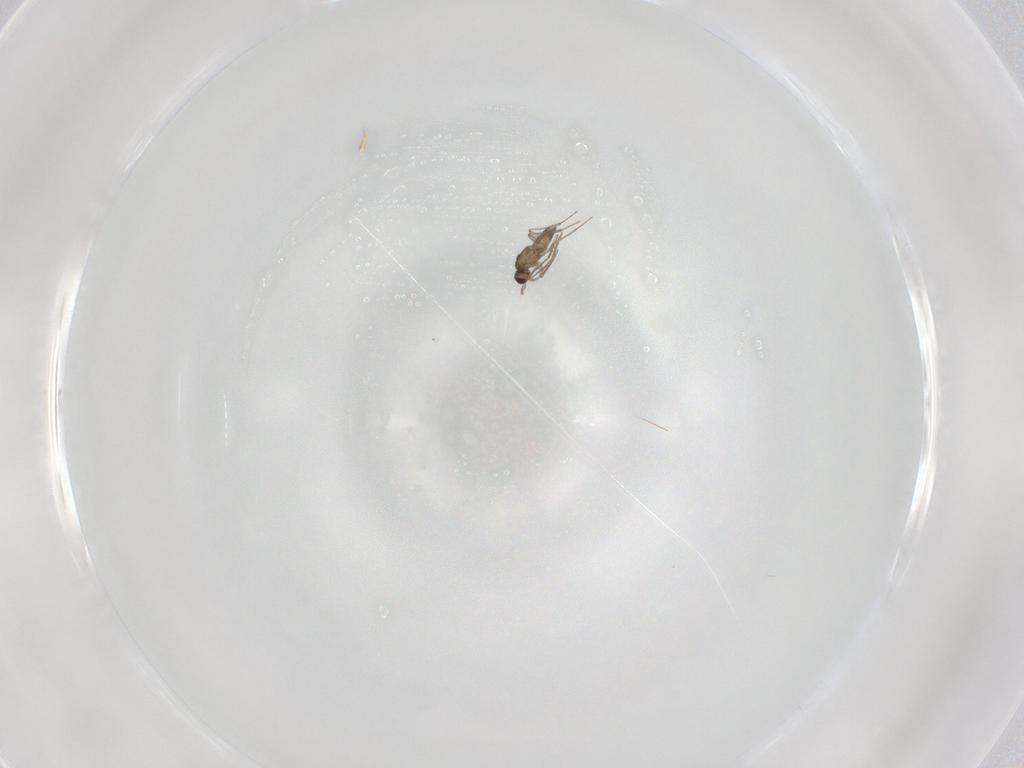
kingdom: Animalia
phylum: Arthropoda
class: Insecta
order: Hymenoptera
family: Mymaridae
